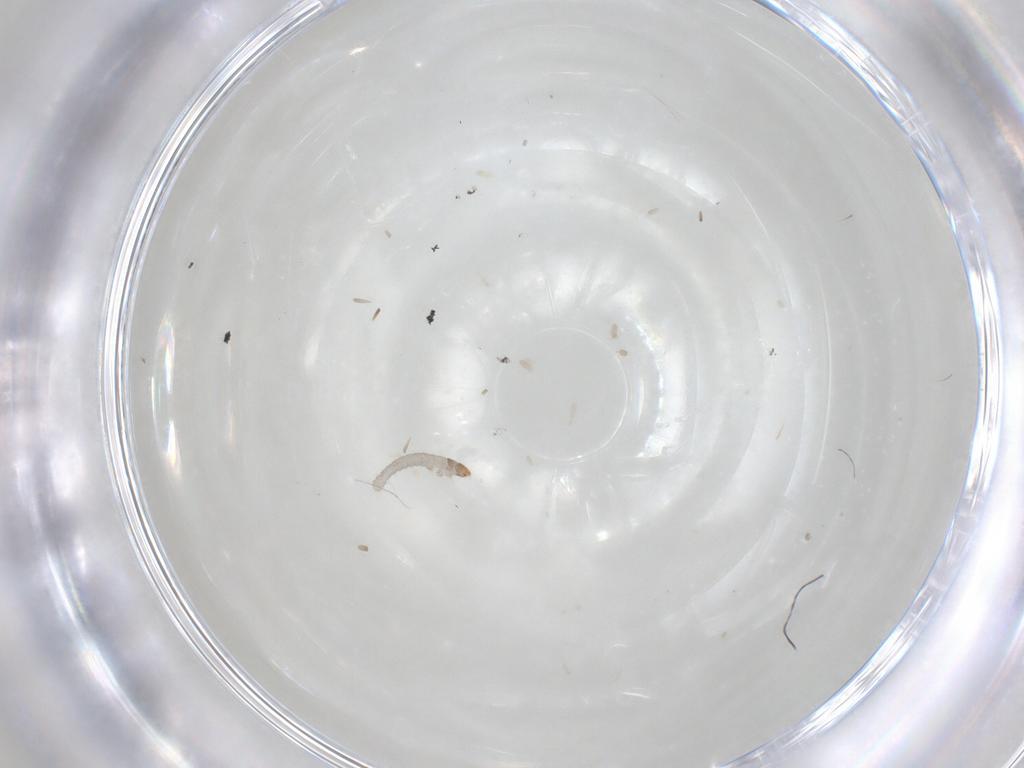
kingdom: Animalia
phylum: Arthropoda
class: Insecta
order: Lepidoptera
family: Tineidae
